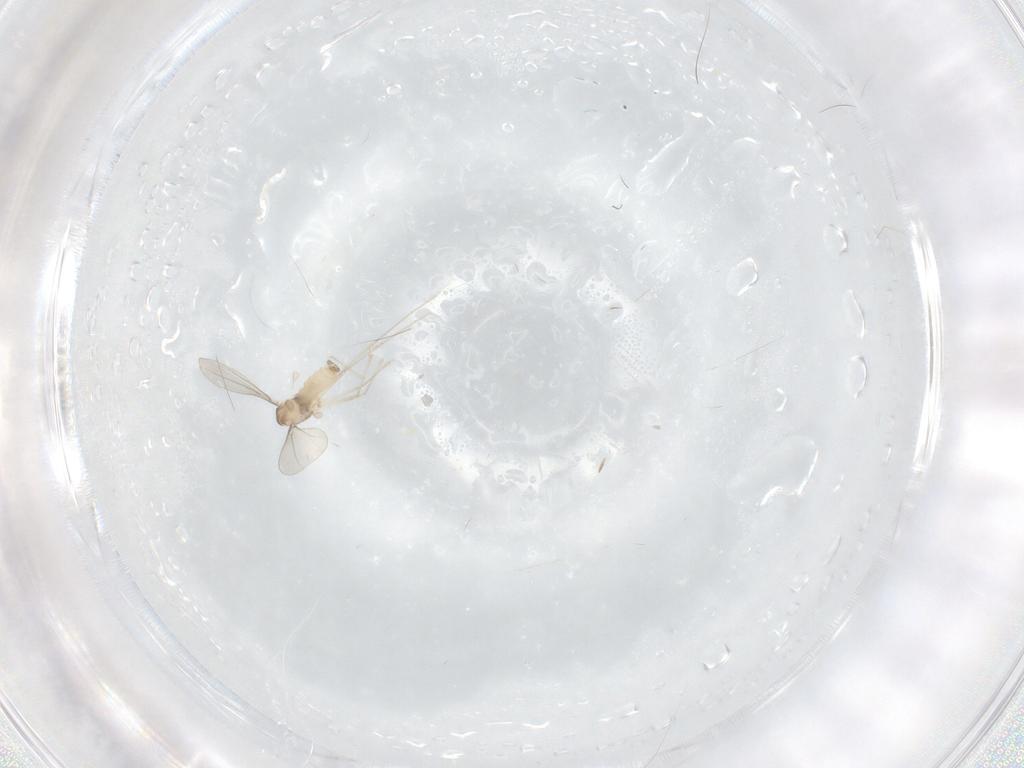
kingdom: Animalia
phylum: Arthropoda
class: Insecta
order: Diptera
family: Cecidomyiidae
